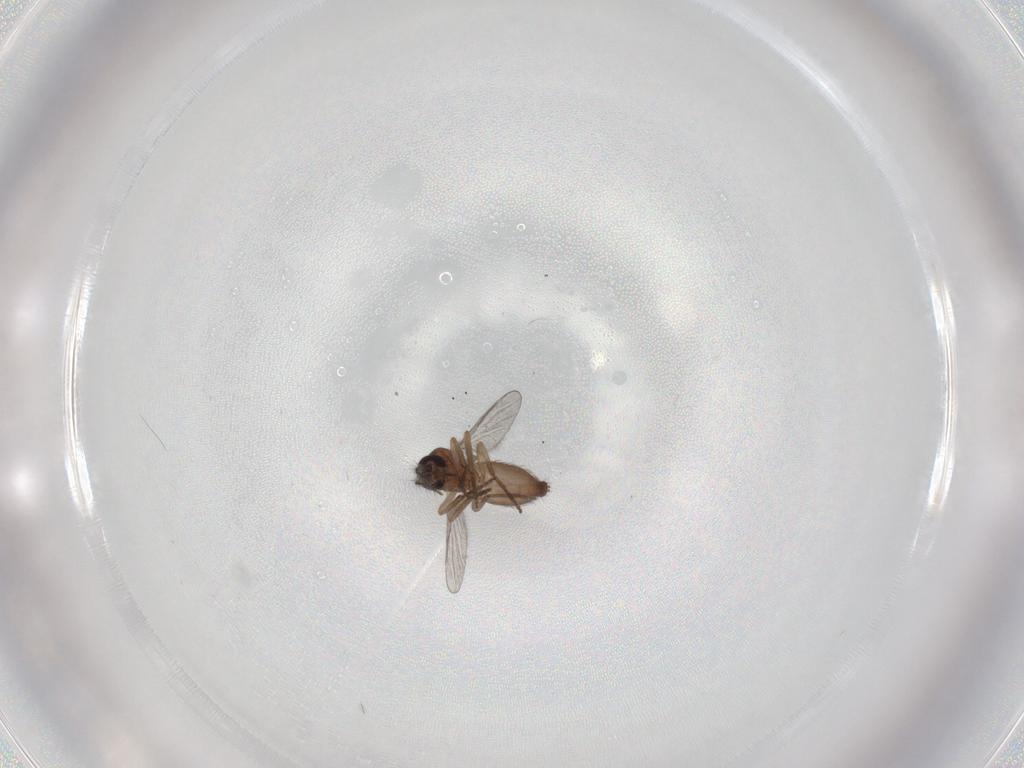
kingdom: Animalia
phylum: Arthropoda
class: Insecta
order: Diptera
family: Ceratopogonidae
